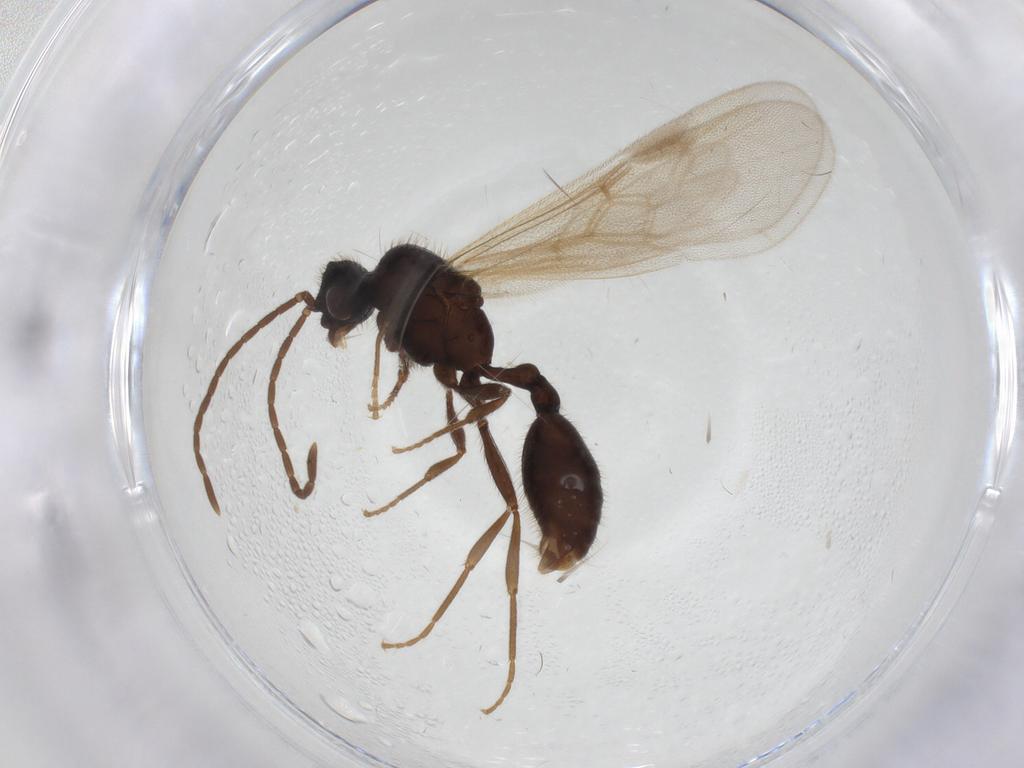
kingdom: Animalia
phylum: Arthropoda
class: Insecta
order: Hymenoptera
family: Formicidae
